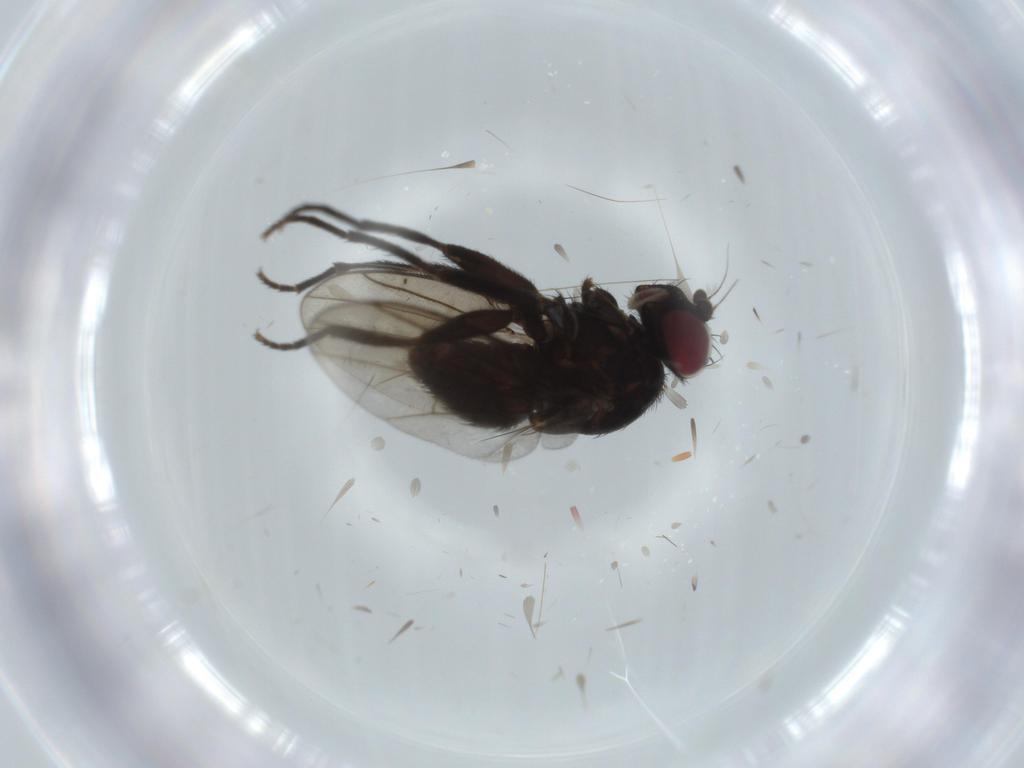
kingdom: Animalia
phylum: Arthropoda
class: Insecta
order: Diptera
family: Agromyzidae
